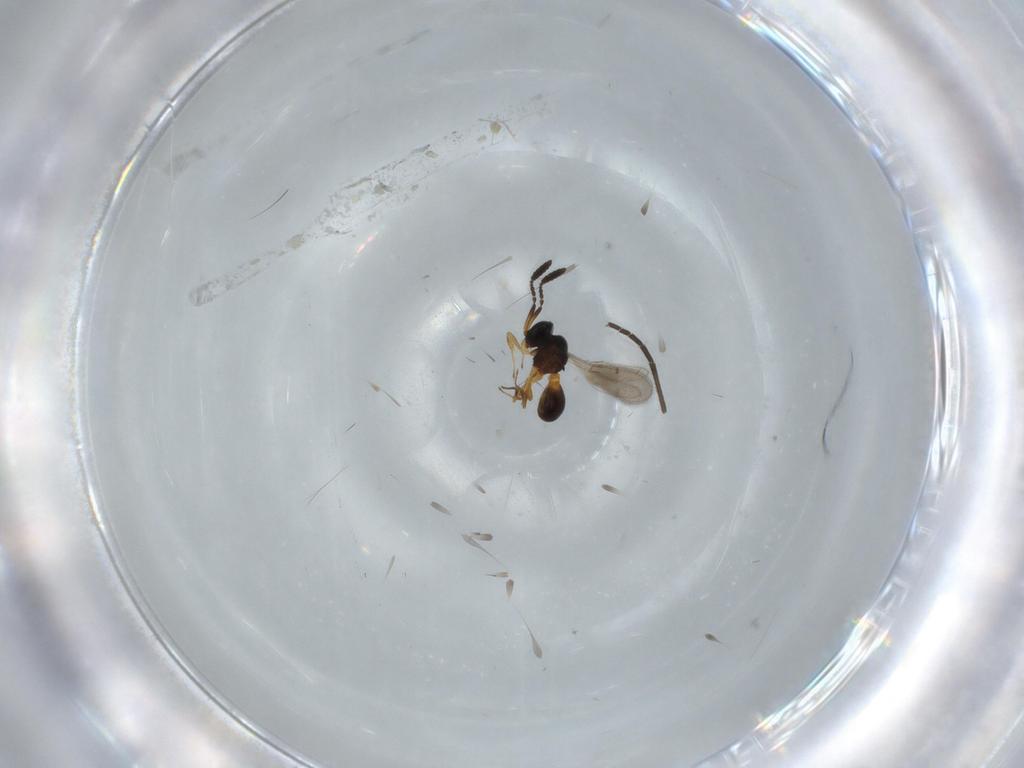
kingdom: Animalia
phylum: Arthropoda
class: Insecta
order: Hymenoptera
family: Scelionidae
